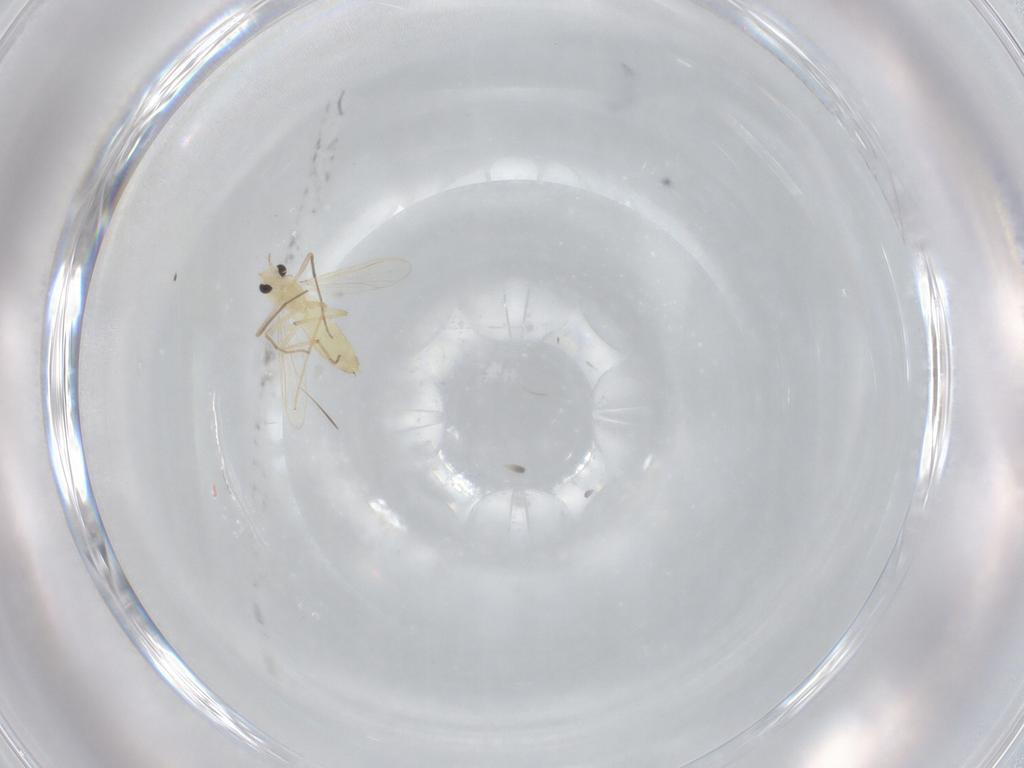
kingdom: Animalia
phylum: Arthropoda
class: Insecta
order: Diptera
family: Chironomidae
